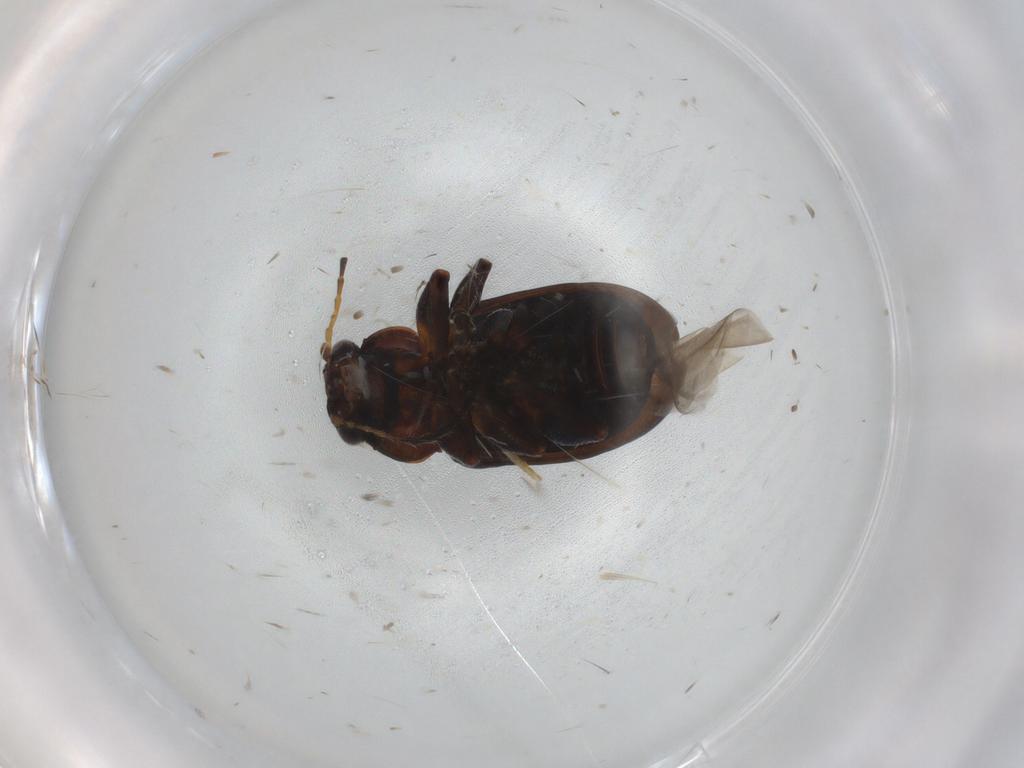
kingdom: Animalia
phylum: Arthropoda
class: Insecta
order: Coleoptera
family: Chrysomelidae
